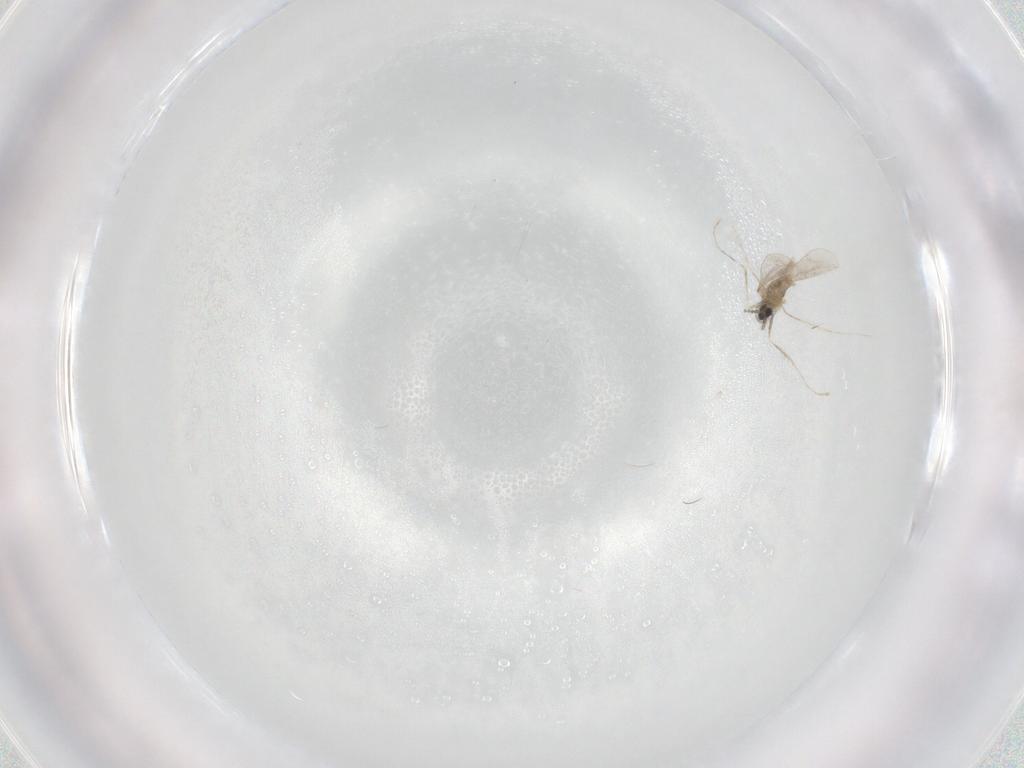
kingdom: Animalia
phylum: Arthropoda
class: Insecta
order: Diptera
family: Cecidomyiidae
